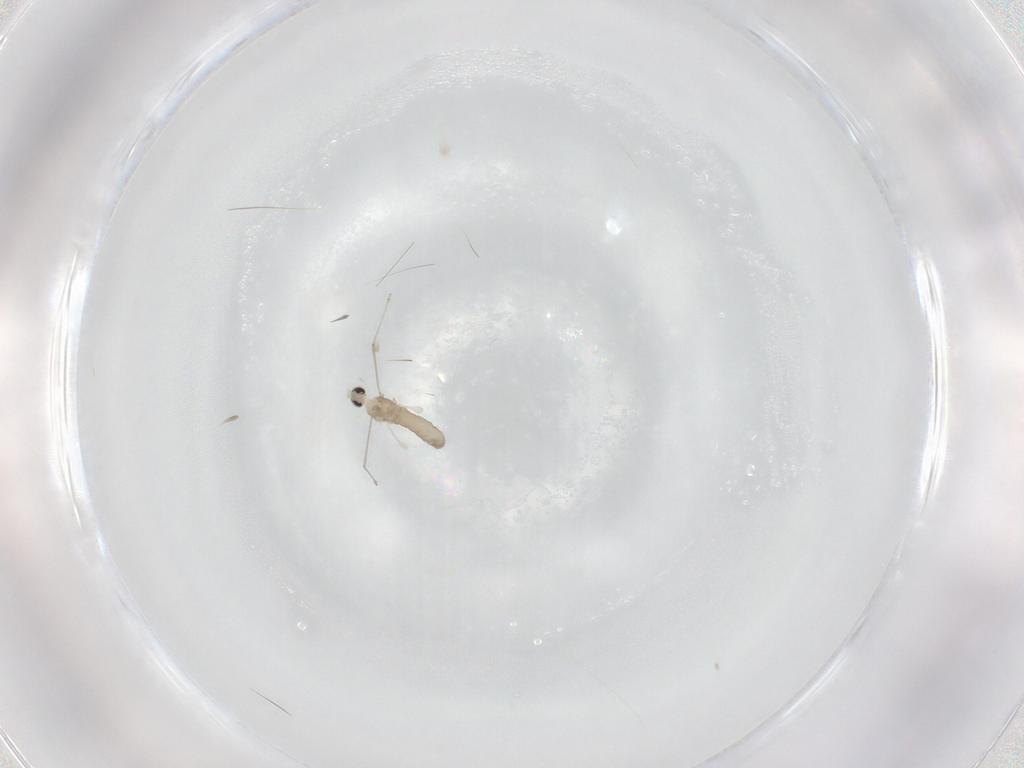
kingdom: Animalia
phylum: Arthropoda
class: Insecta
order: Diptera
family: Cecidomyiidae
